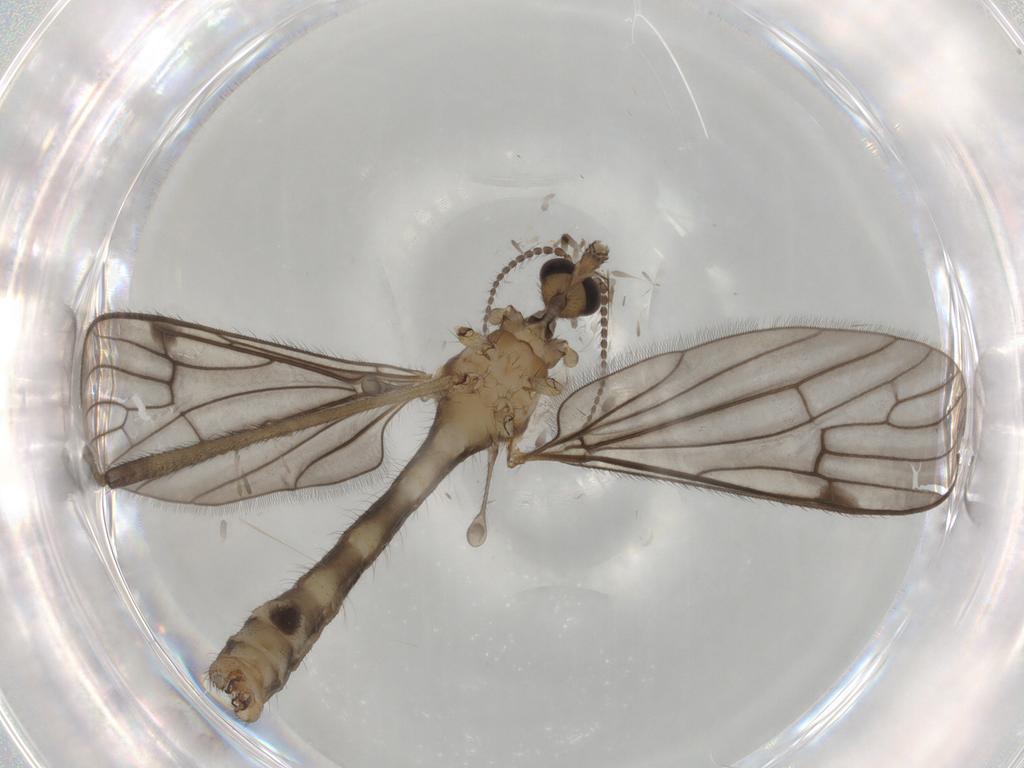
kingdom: Animalia
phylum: Arthropoda
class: Insecta
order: Diptera
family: Limoniidae
